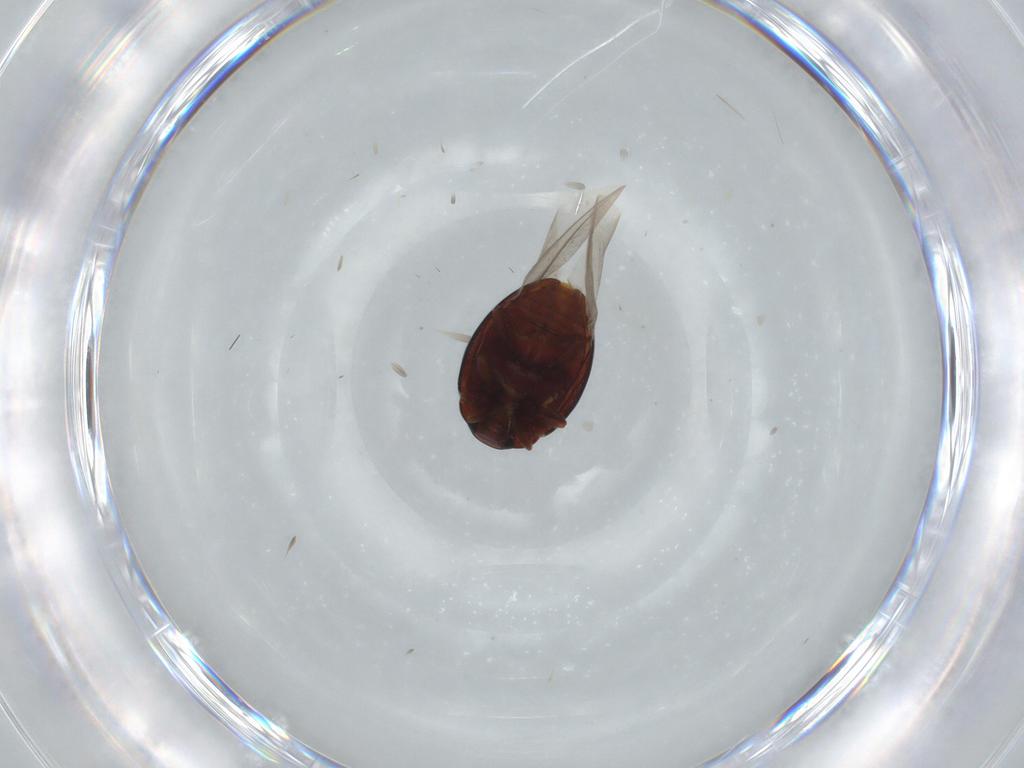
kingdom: Animalia
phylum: Arthropoda
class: Insecta
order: Coleoptera
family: Coccinellidae
